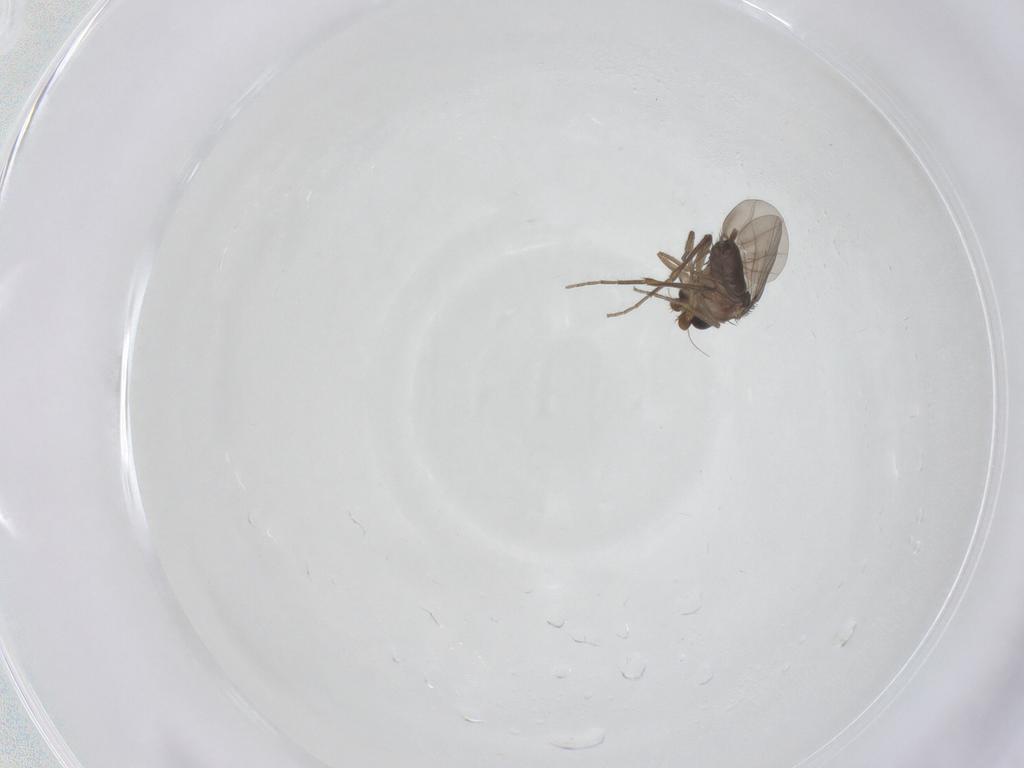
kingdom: Animalia
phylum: Arthropoda
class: Insecta
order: Diptera
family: Phoridae
